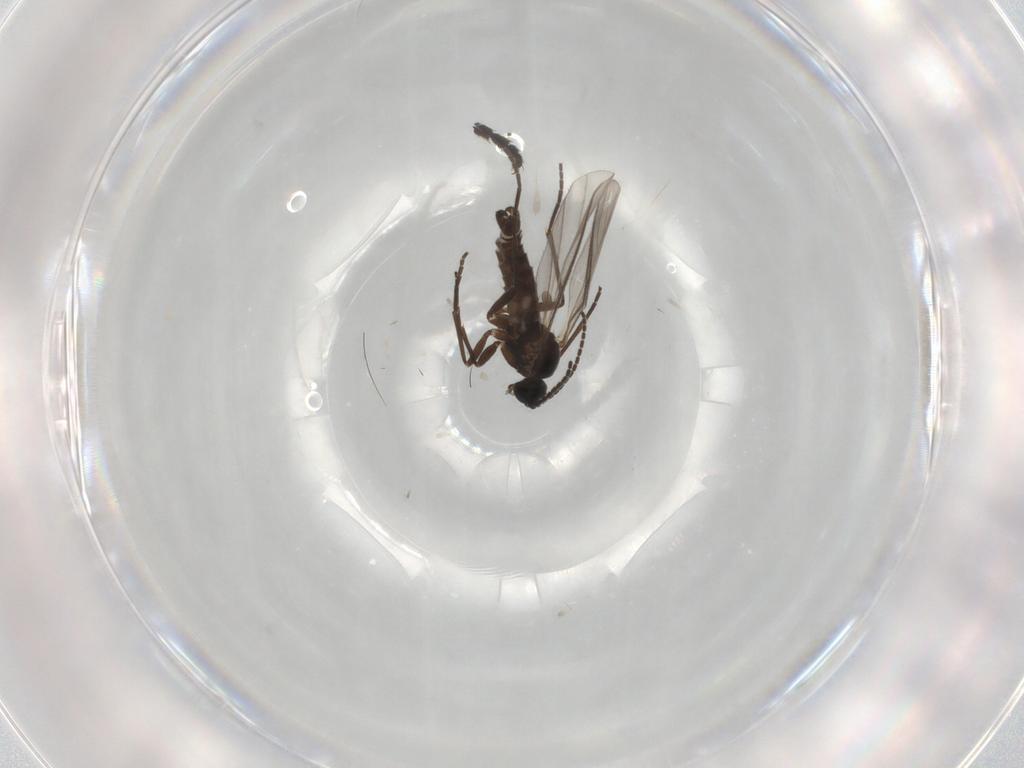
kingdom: Animalia
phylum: Arthropoda
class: Insecta
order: Diptera
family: Sciaridae
